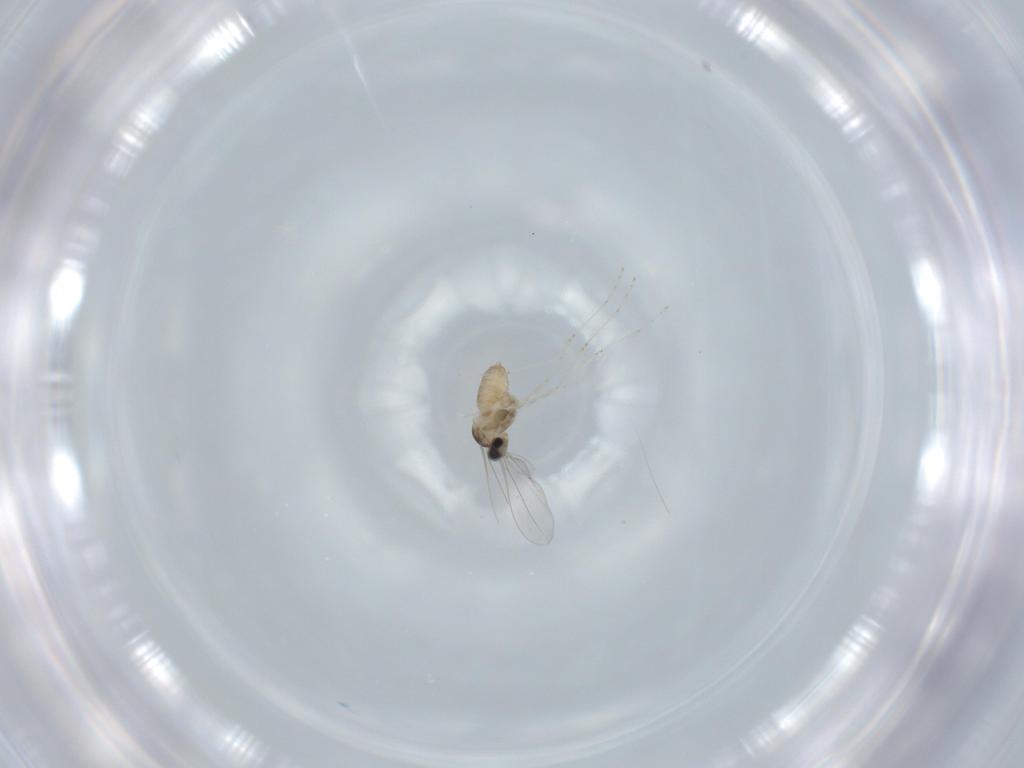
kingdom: Animalia
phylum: Arthropoda
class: Insecta
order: Diptera
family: Cecidomyiidae
